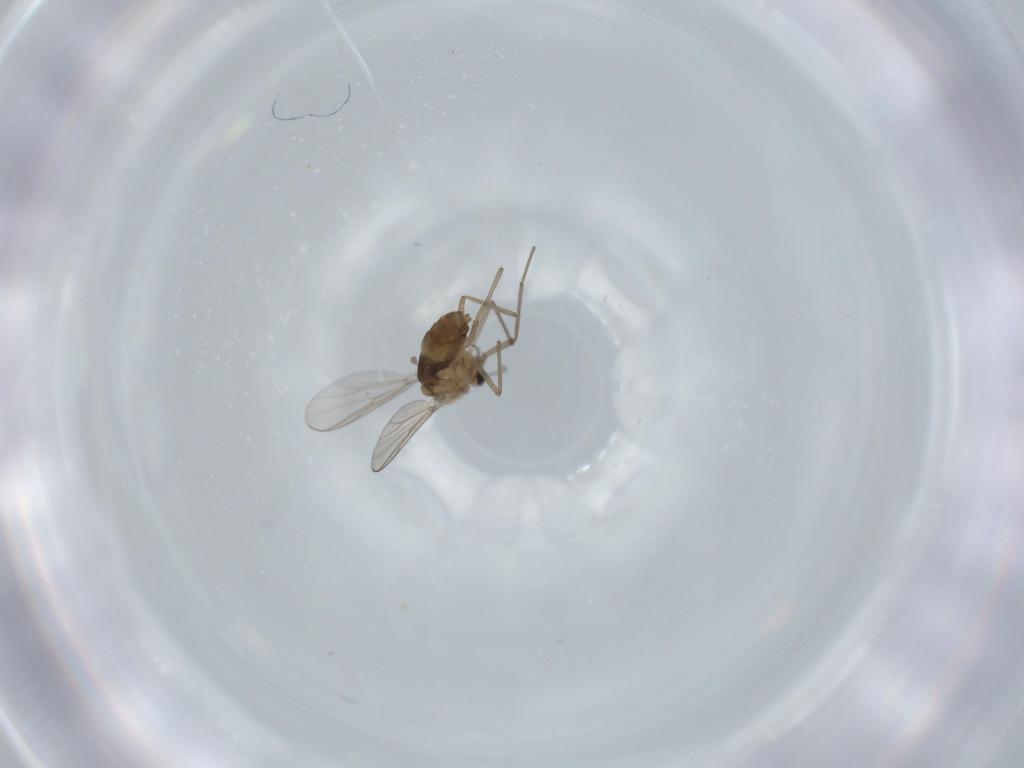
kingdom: Animalia
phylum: Arthropoda
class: Insecta
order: Diptera
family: Chironomidae
